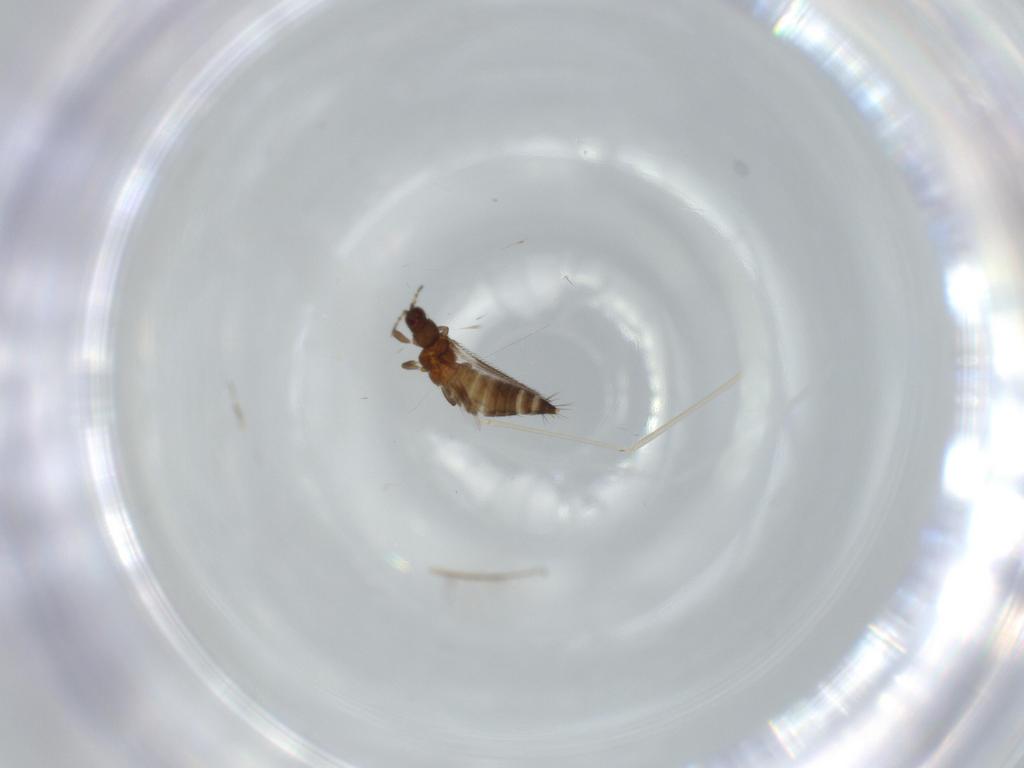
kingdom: Animalia
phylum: Arthropoda
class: Insecta
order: Thysanoptera
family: Thripidae
